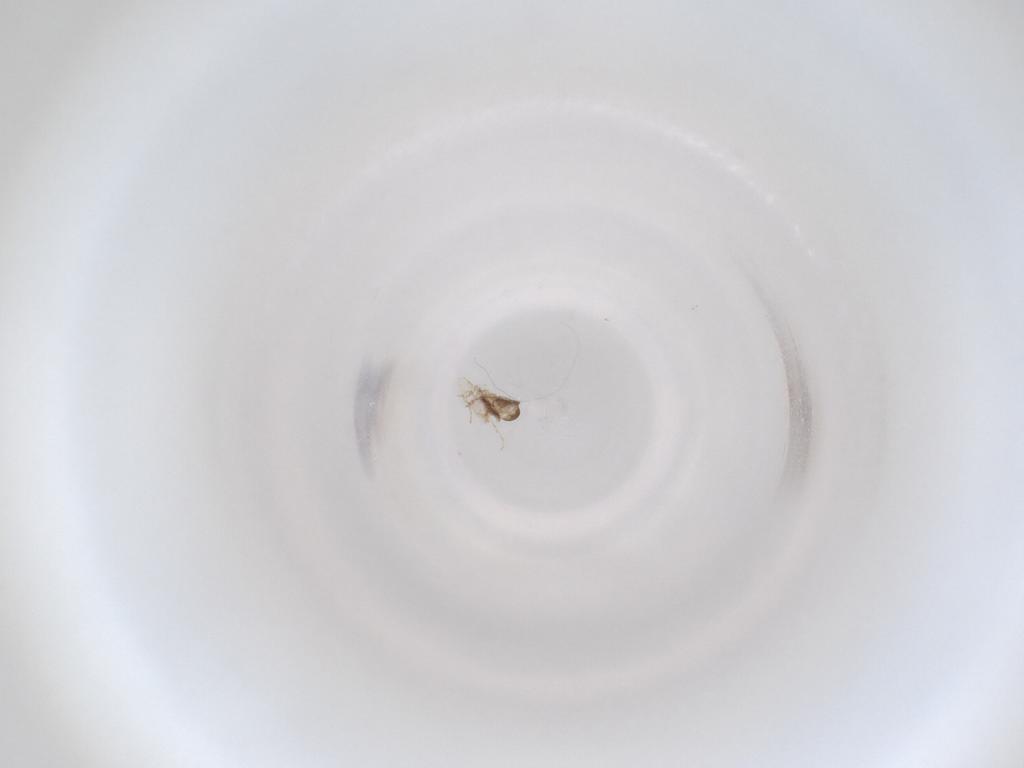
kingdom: Animalia
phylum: Arthropoda
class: Insecta
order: Diptera
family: Cecidomyiidae
